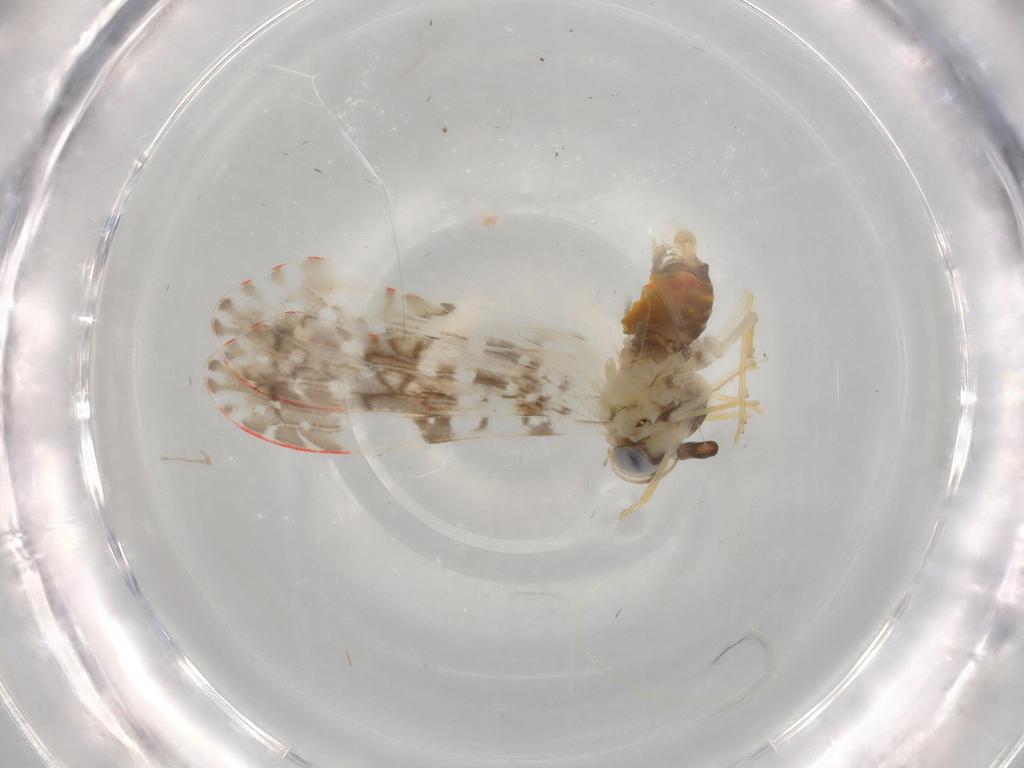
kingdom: Animalia
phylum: Arthropoda
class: Insecta
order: Hemiptera
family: Derbidae
